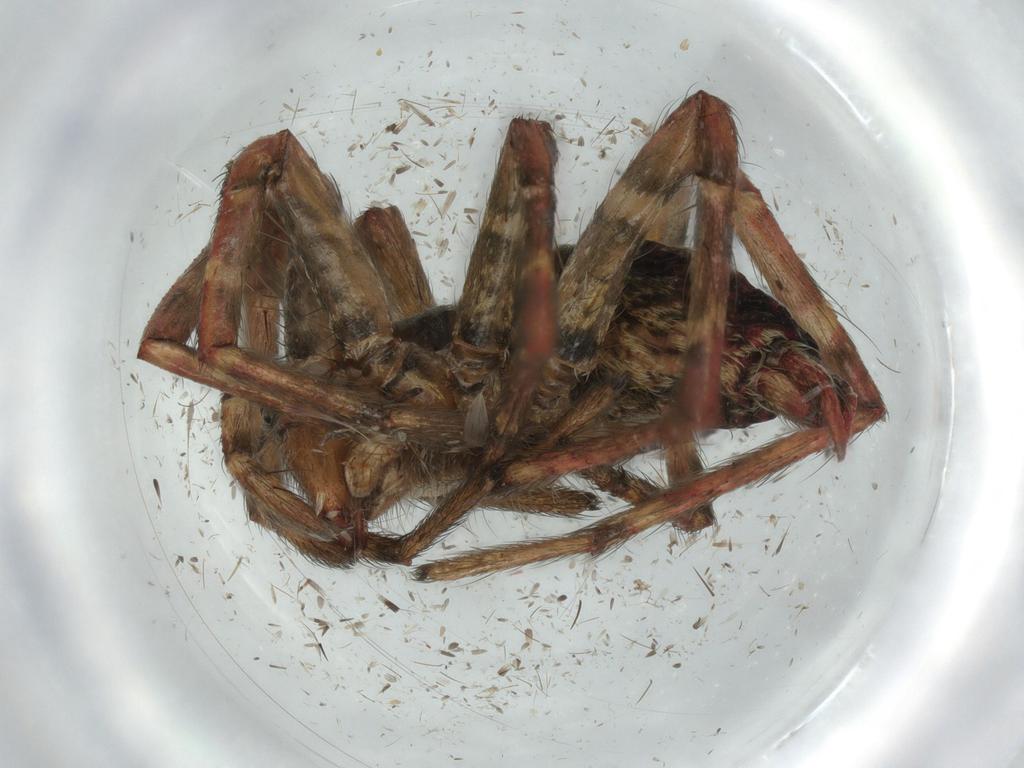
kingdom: Animalia
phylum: Arthropoda
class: Arachnida
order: Araneae
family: Agelenidae
